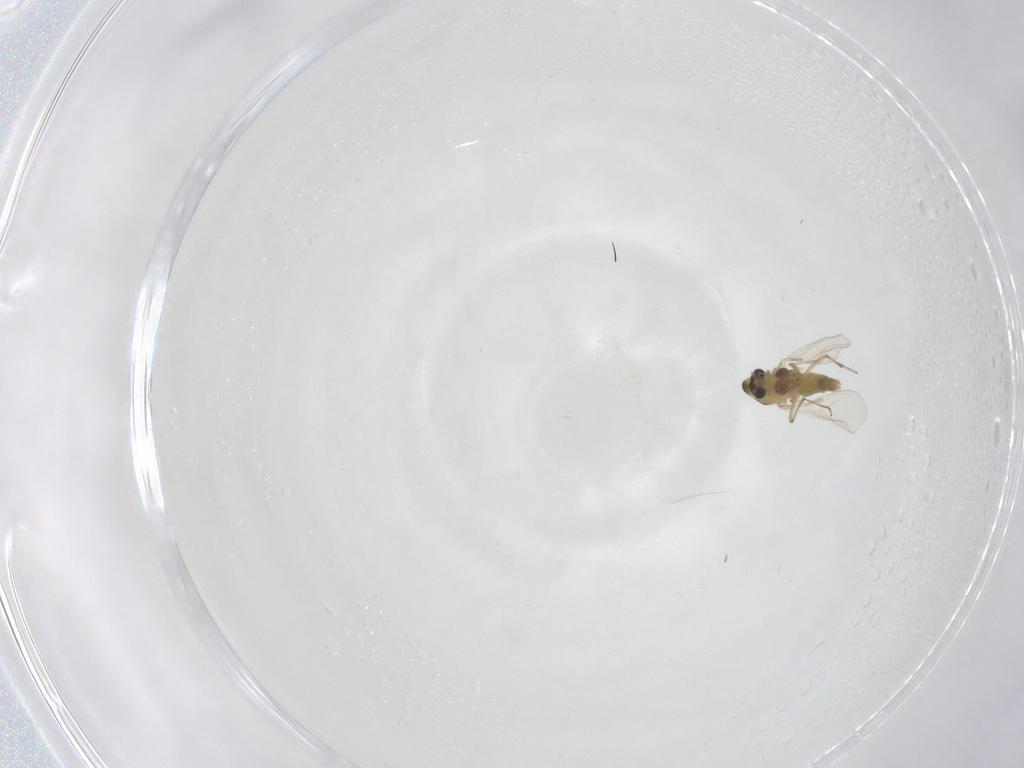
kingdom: Animalia
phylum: Arthropoda
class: Insecta
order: Diptera
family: Chironomidae
